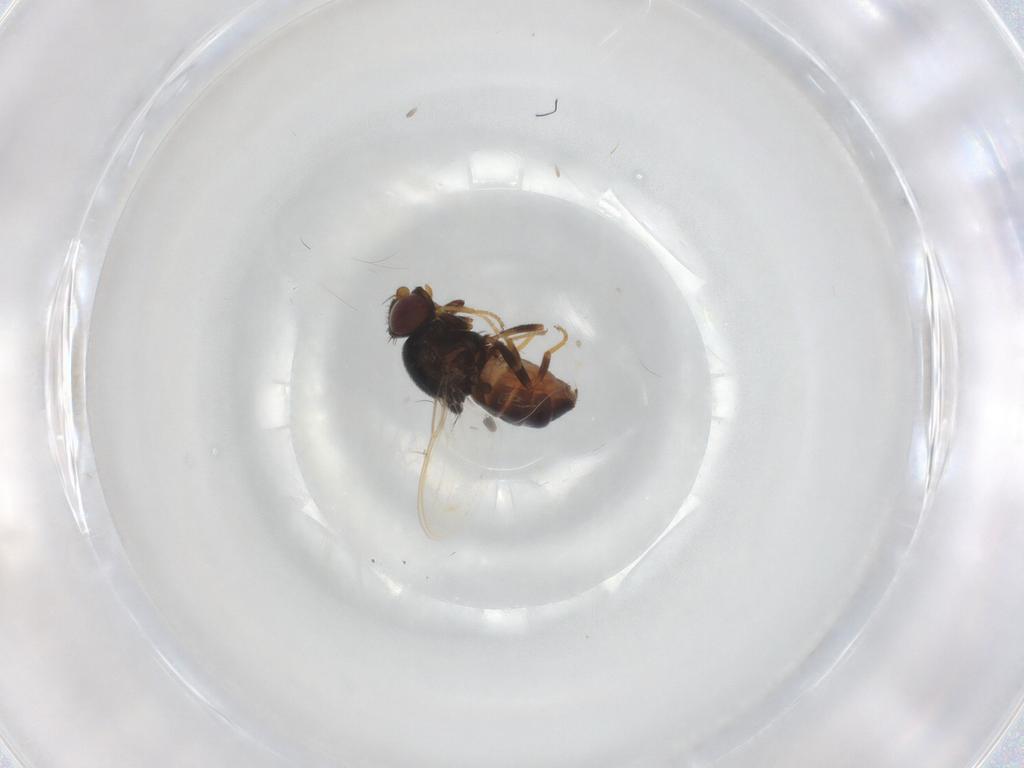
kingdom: Animalia
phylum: Arthropoda
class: Insecta
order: Diptera
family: Chloropidae
